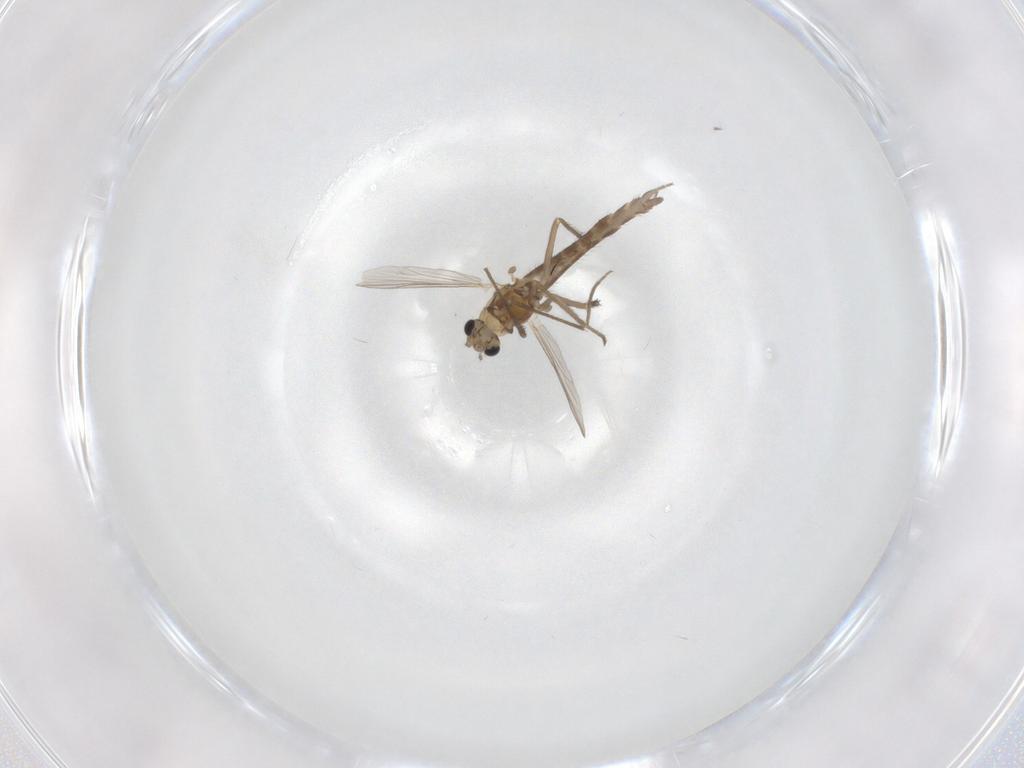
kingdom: Animalia
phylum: Arthropoda
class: Insecta
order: Diptera
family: Chironomidae
